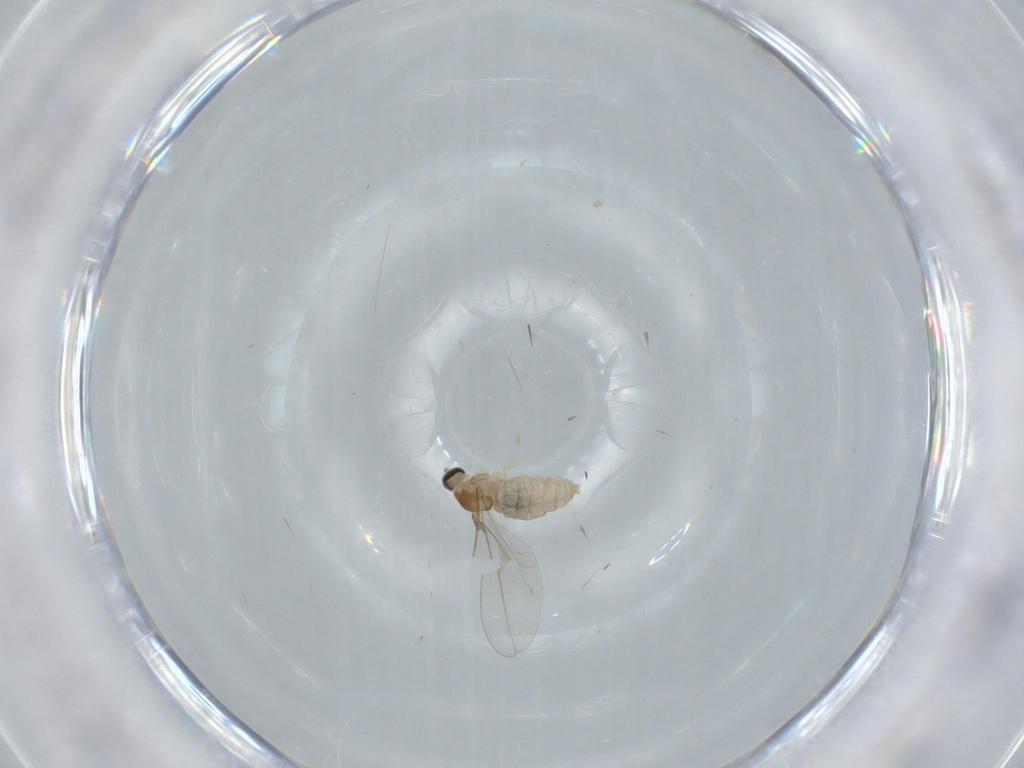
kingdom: Animalia
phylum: Arthropoda
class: Insecta
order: Diptera
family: Cecidomyiidae
